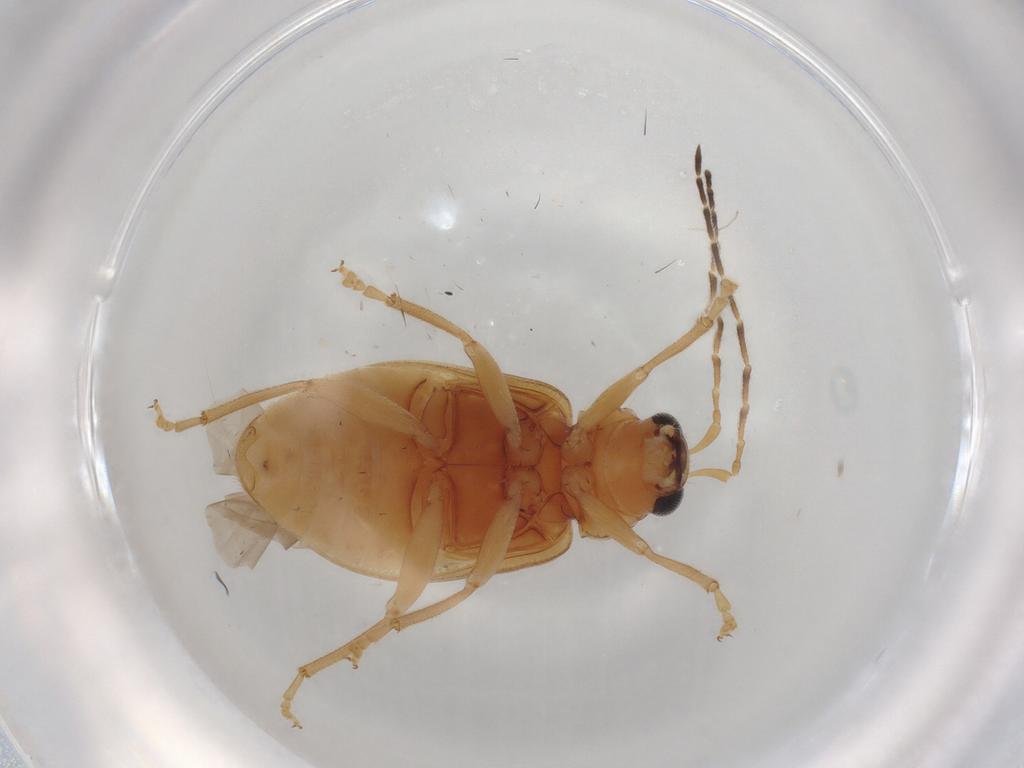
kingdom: Animalia
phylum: Arthropoda
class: Insecta
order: Coleoptera
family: Chrysomelidae
